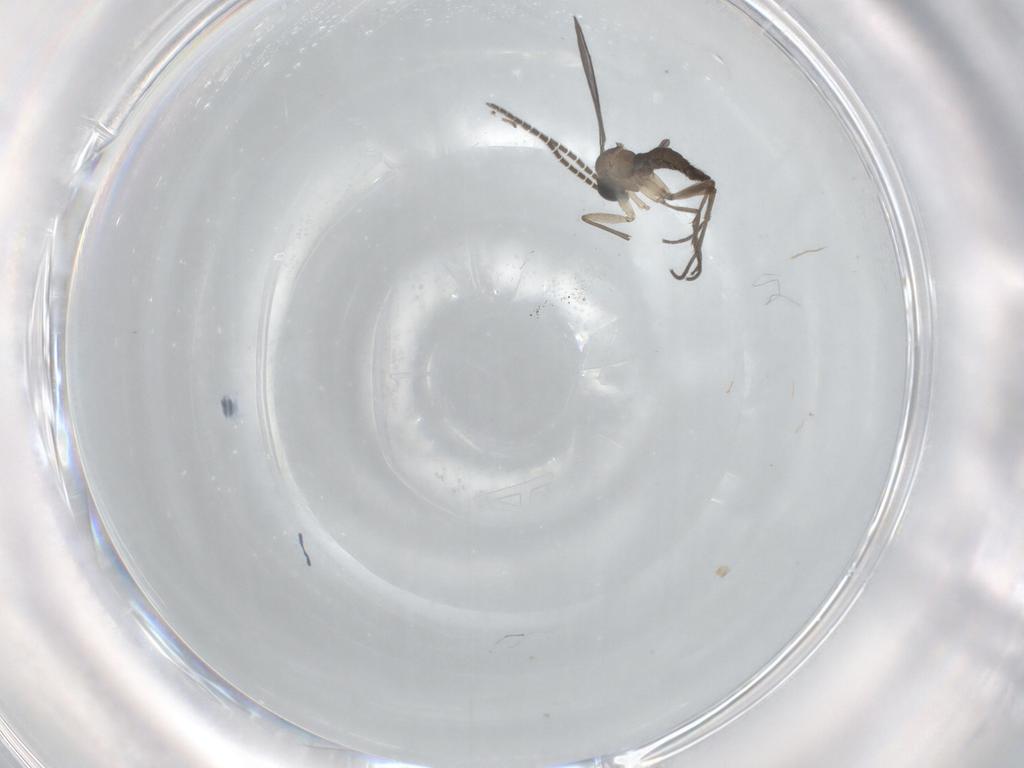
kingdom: Animalia
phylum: Arthropoda
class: Insecta
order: Diptera
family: Sciaridae
